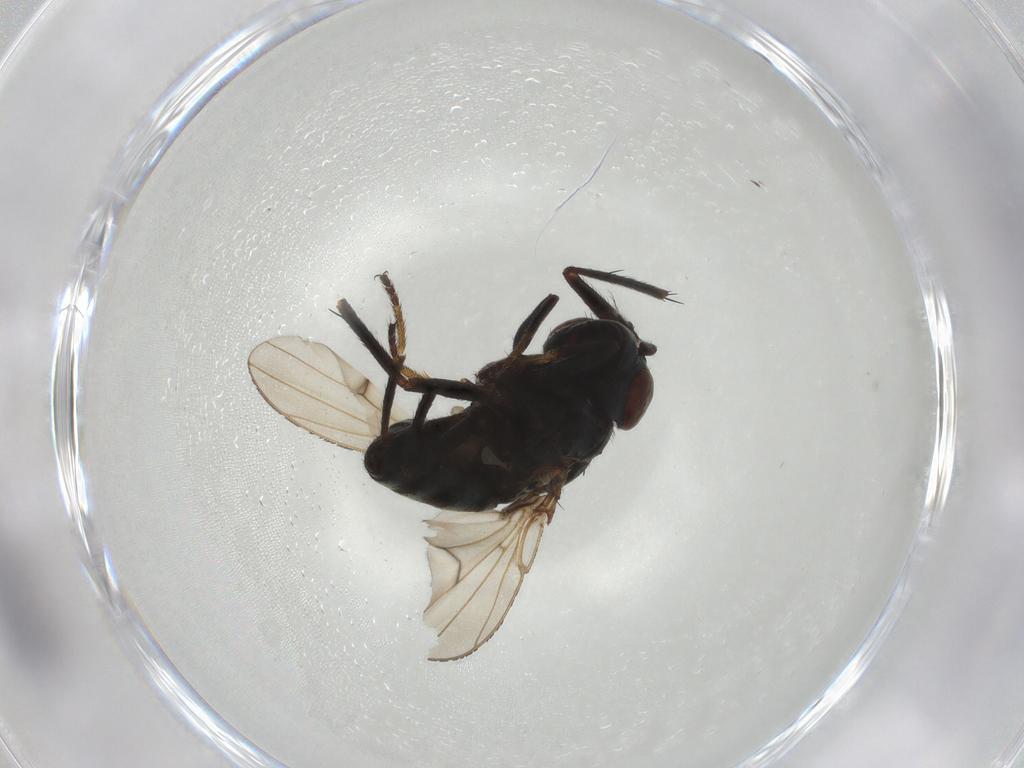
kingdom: Animalia
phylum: Arthropoda
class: Insecta
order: Diptera
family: Ephydridae
